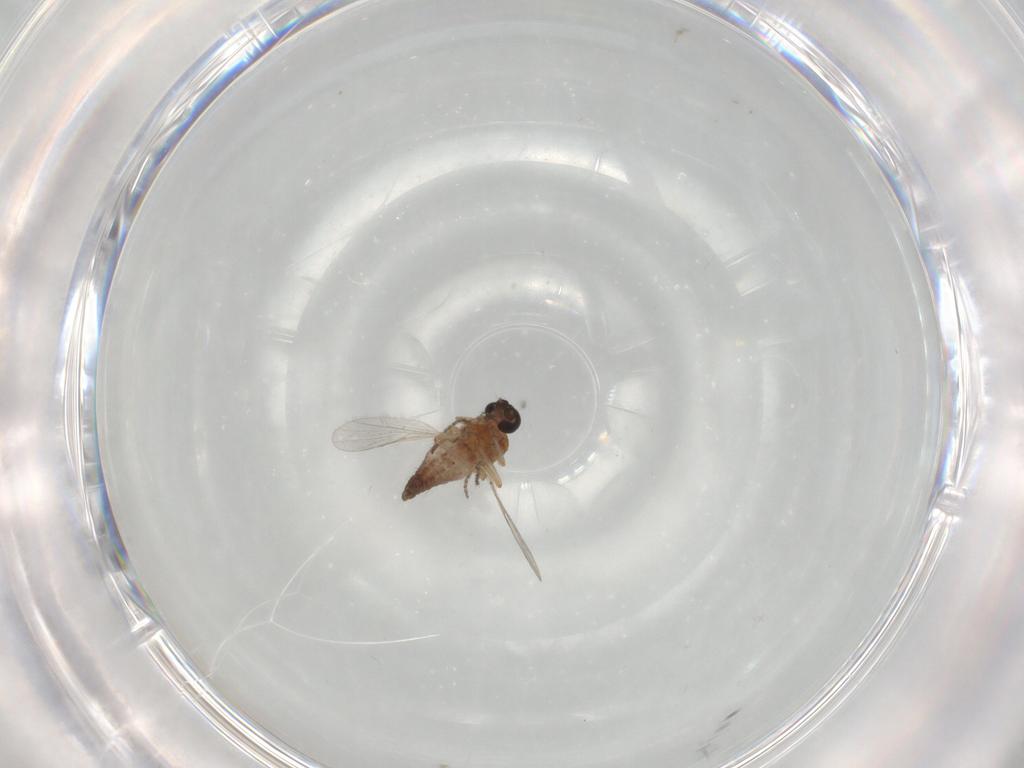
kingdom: Animalia
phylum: Arthropoda
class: Insecta
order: Diptera
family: Ceratopogonidae
